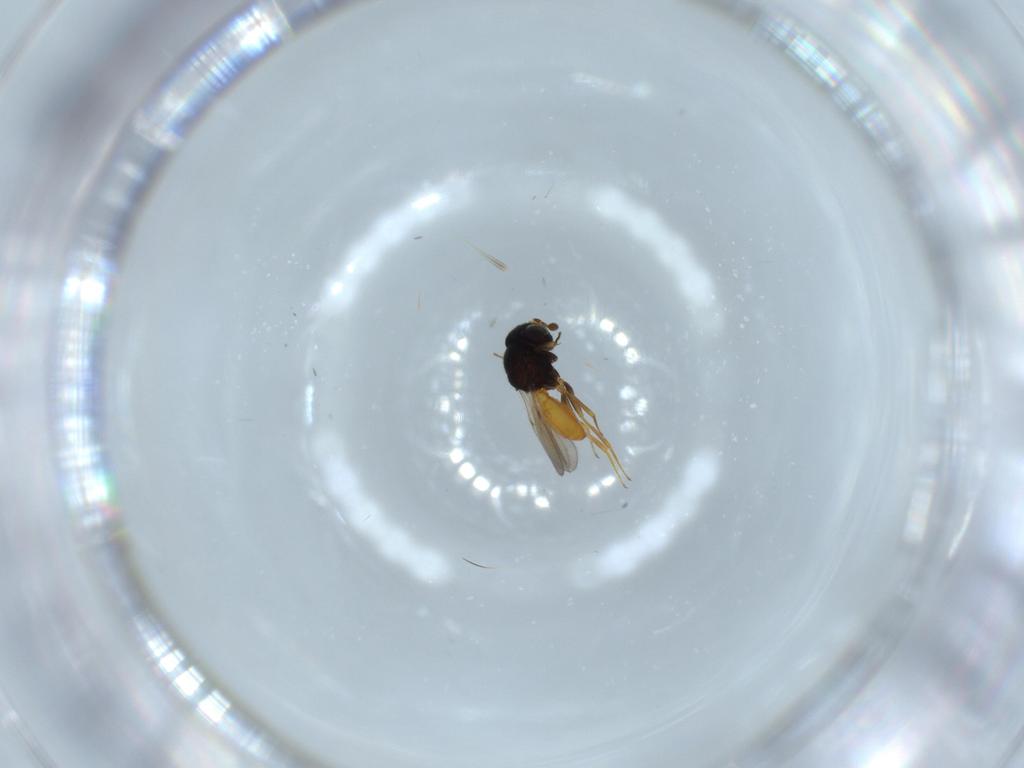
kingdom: Animalia
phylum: Arthropoda
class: Insecta
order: Hymenoptera
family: Scelionidae
